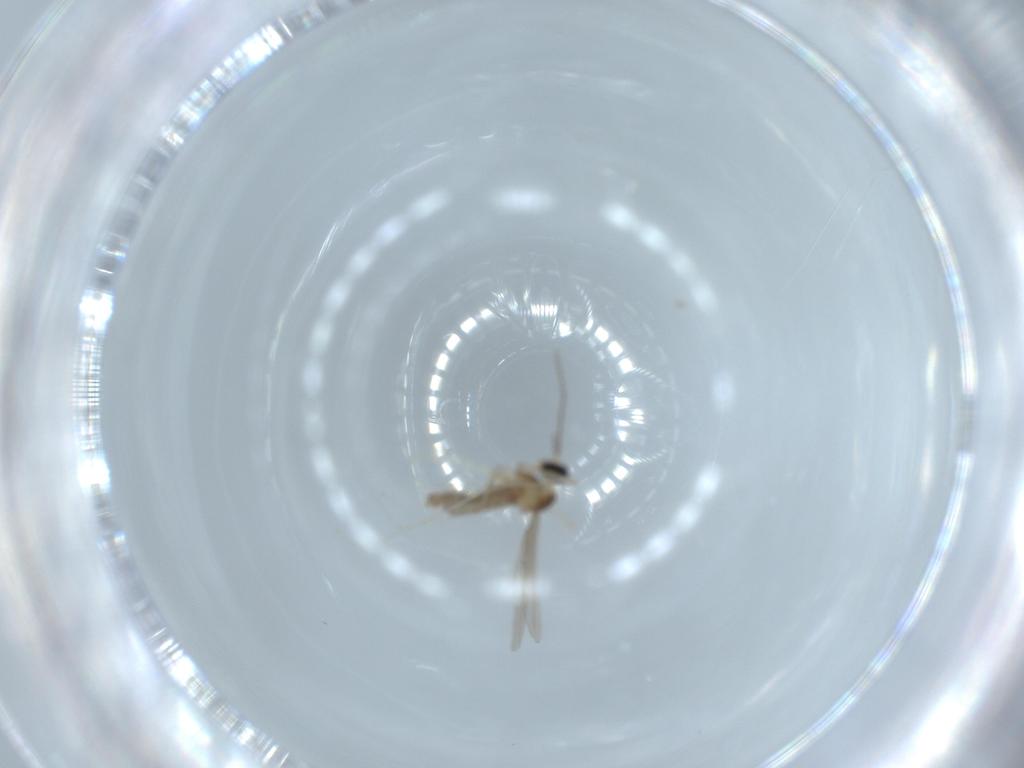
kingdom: Animalia
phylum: Arthropoda
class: Insecta
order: Diptera
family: Cecidomyiidae
